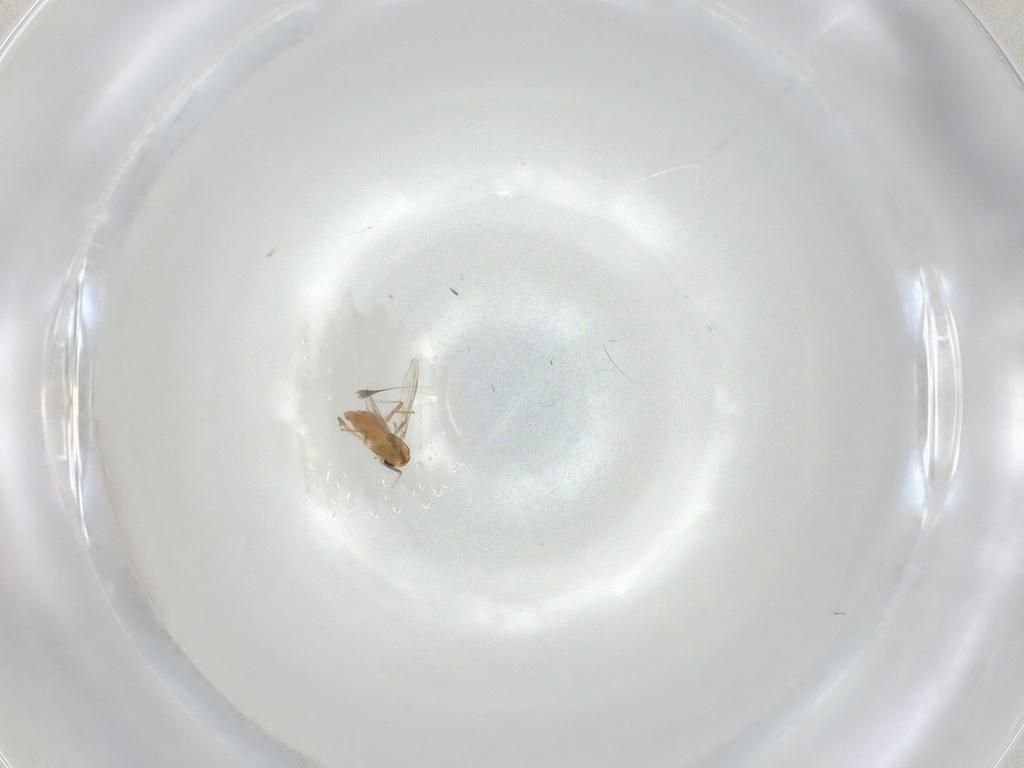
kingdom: Animalia
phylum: Arthropoda
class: Insecta
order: Diptera
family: Chironomidae
